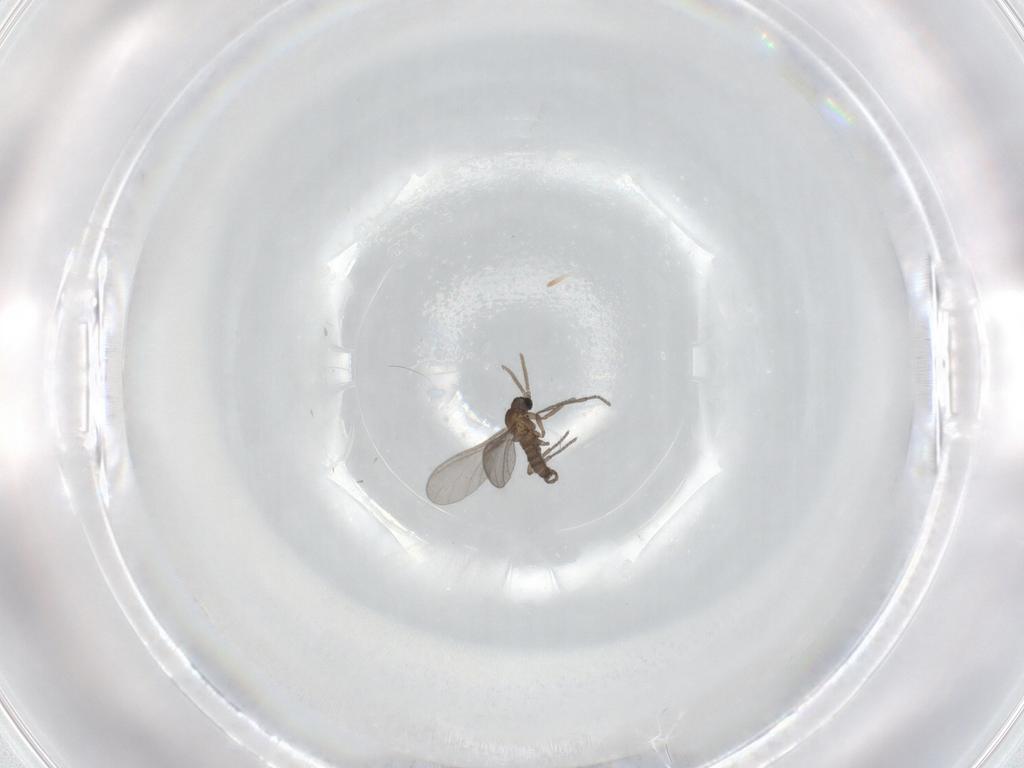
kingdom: Animalia
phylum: Arthropoda
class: Insecta
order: Diptera
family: Sciaridae
